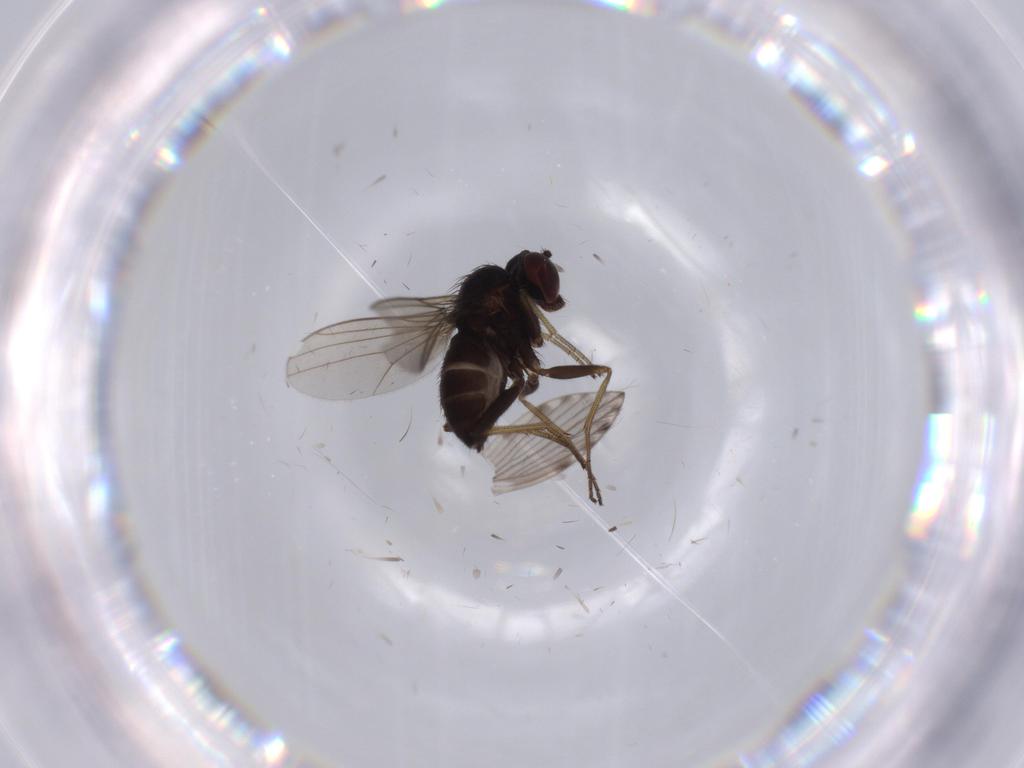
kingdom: Animalia
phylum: Arthropoda
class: Insecta
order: Diptera
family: Dolichopodidae
